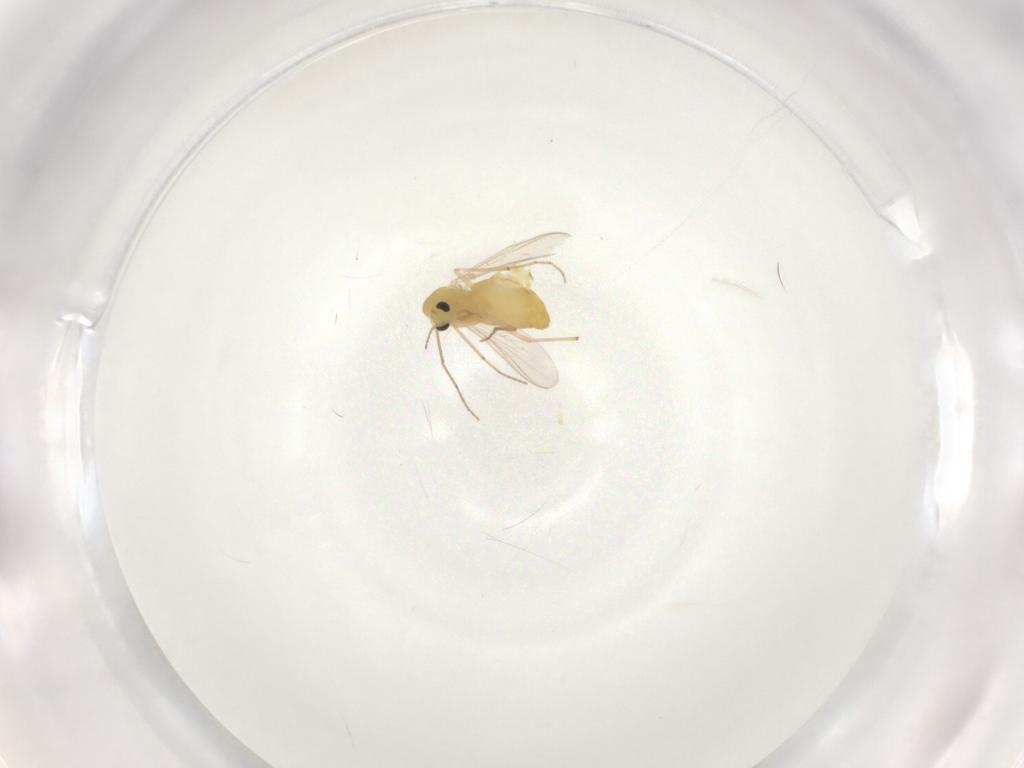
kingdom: Animalia
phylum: Arthropoda
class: Insecta
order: Diptera
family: Chironomidae
